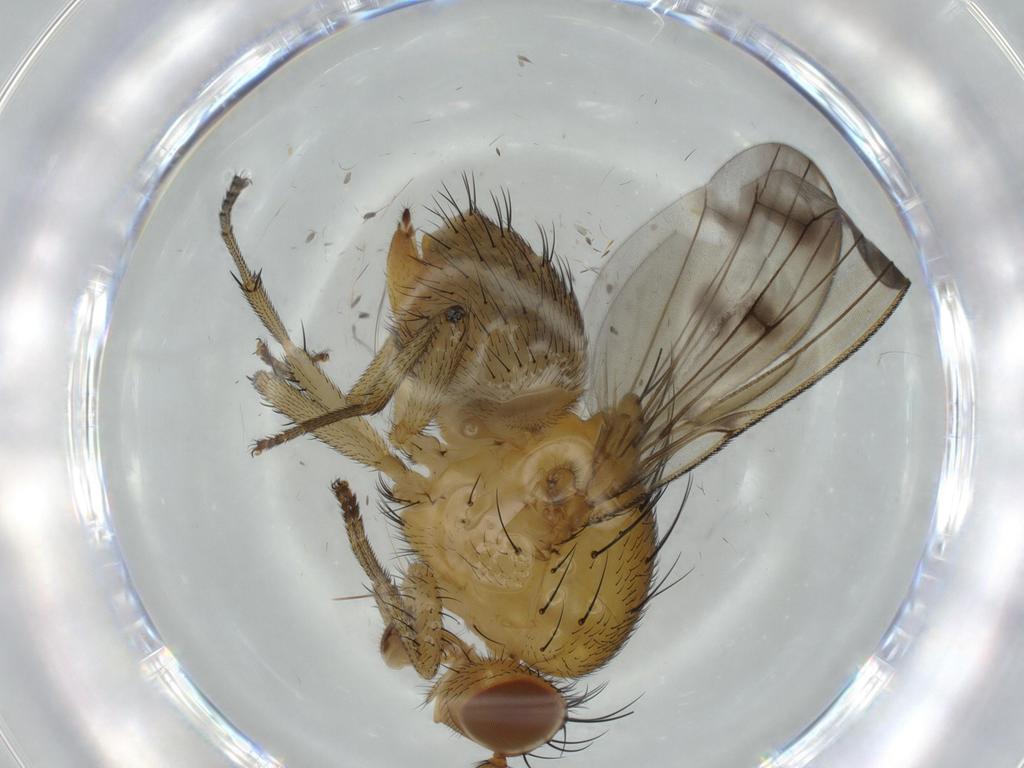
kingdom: Animalia
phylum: Arthropoda
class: Insecta
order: Diptera
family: Sciaridae
